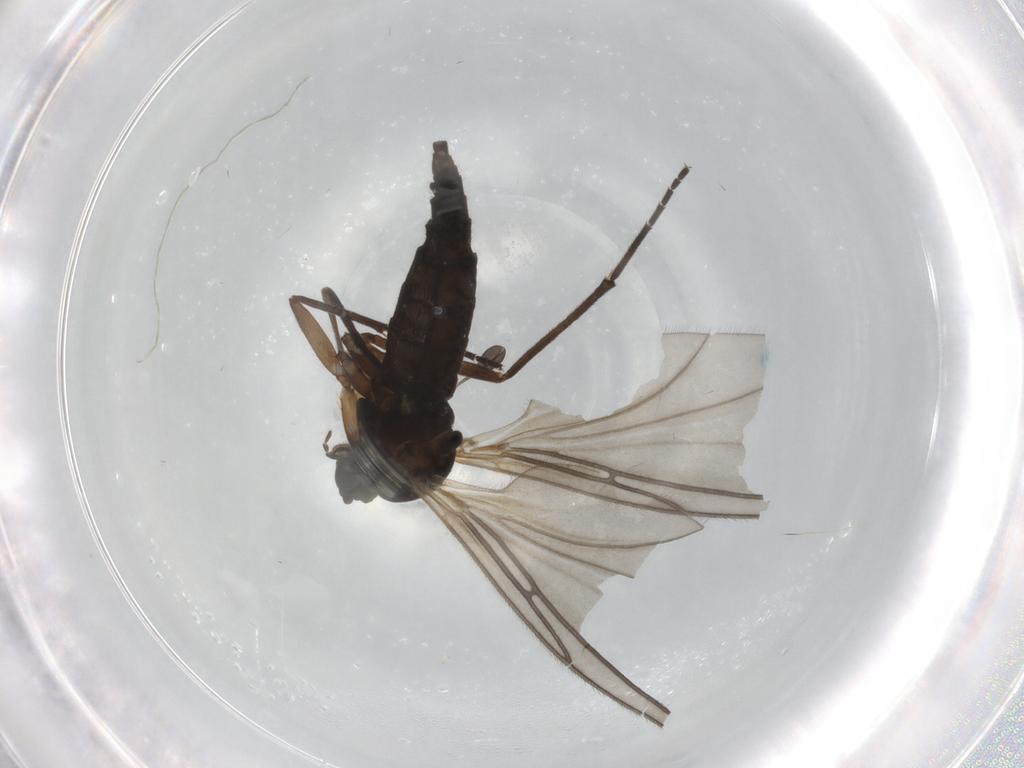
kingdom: Animalia
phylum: Arthropoda
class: Insecta
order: Diptera
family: Sciaridae
